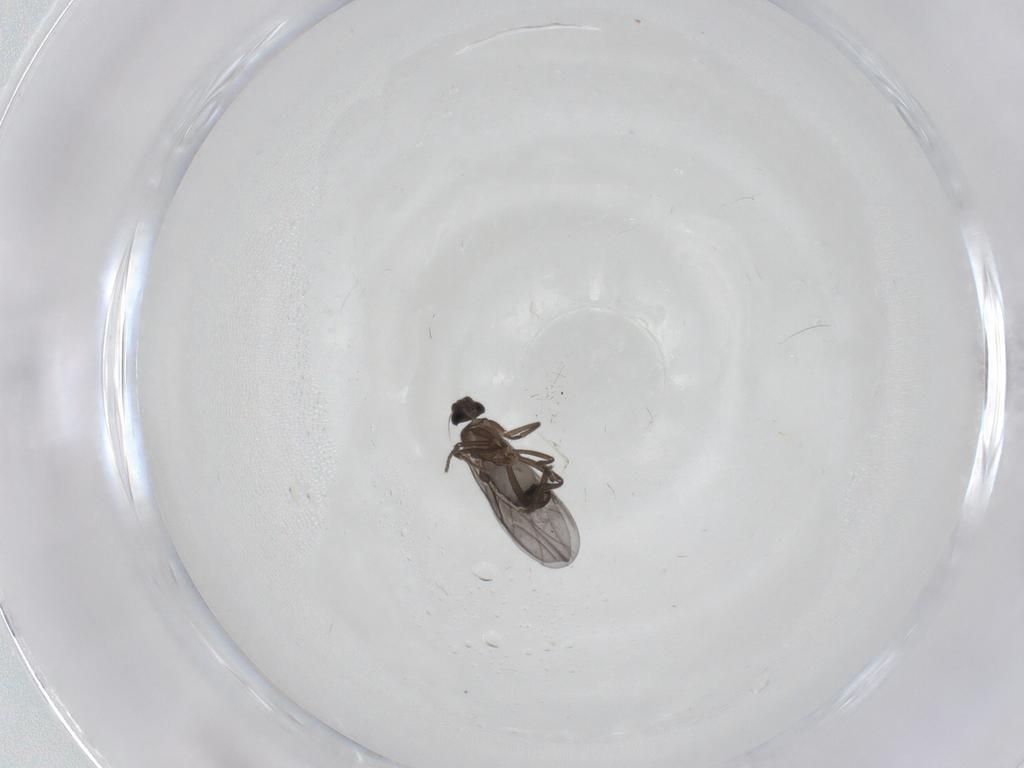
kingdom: Animalia
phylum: Arthropoda
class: Insecta
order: Diptera
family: Phoridae
